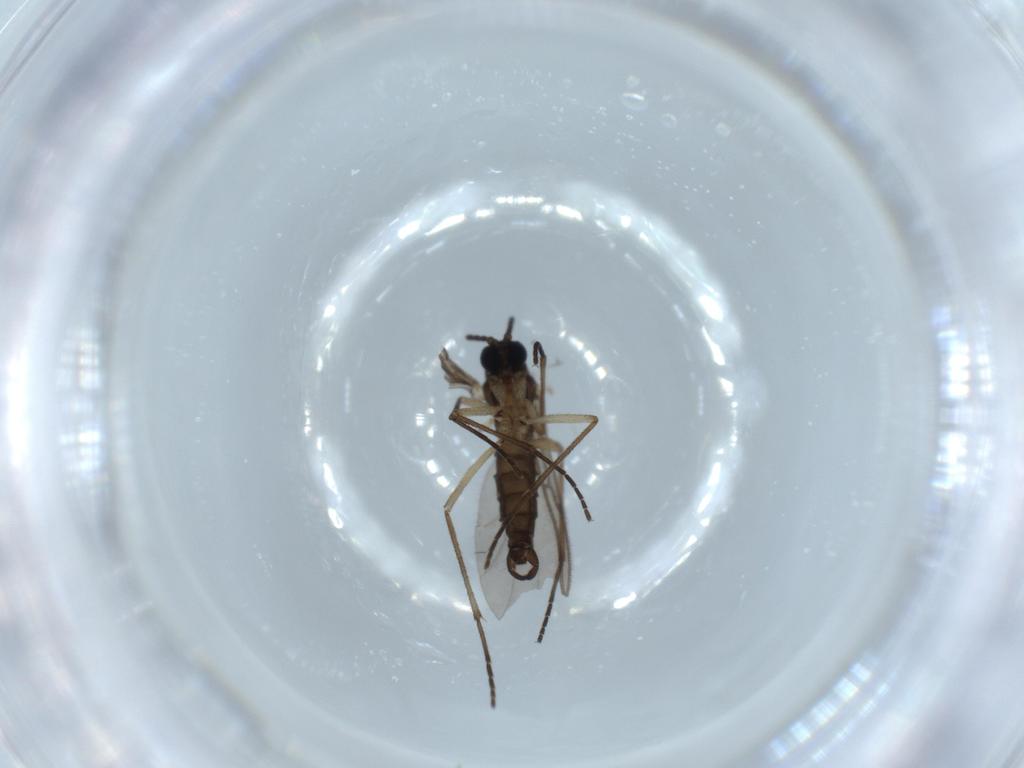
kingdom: Animalia
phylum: Arthropoda
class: Insecta
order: Diptera
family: Sciaridae
